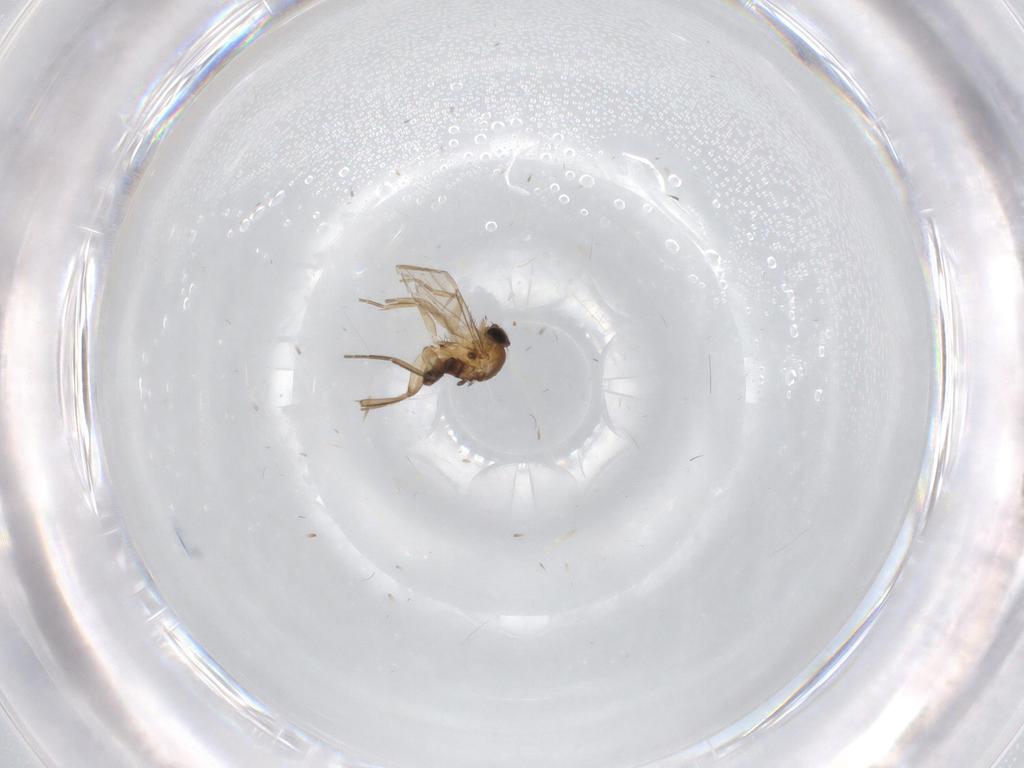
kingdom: Animalia
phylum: Arthropoda
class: Insecta
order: Diptera
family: Phoridae
